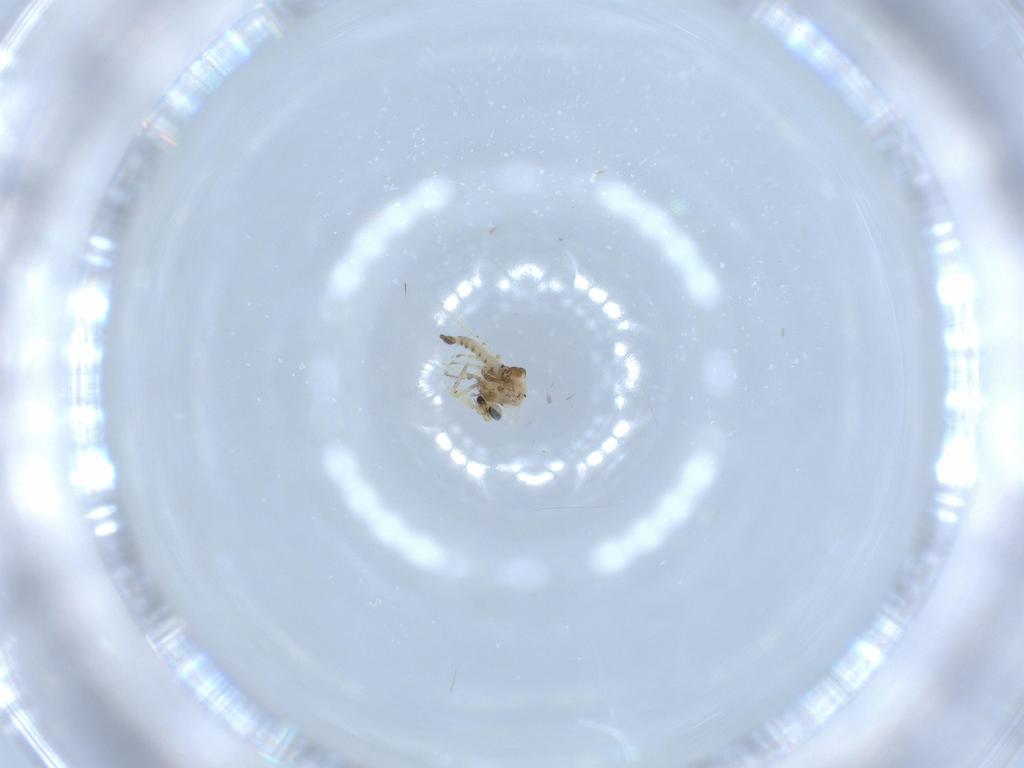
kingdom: Animalia
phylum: Arthropoda
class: Insecta
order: Diptera
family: Ceratopogonidae
